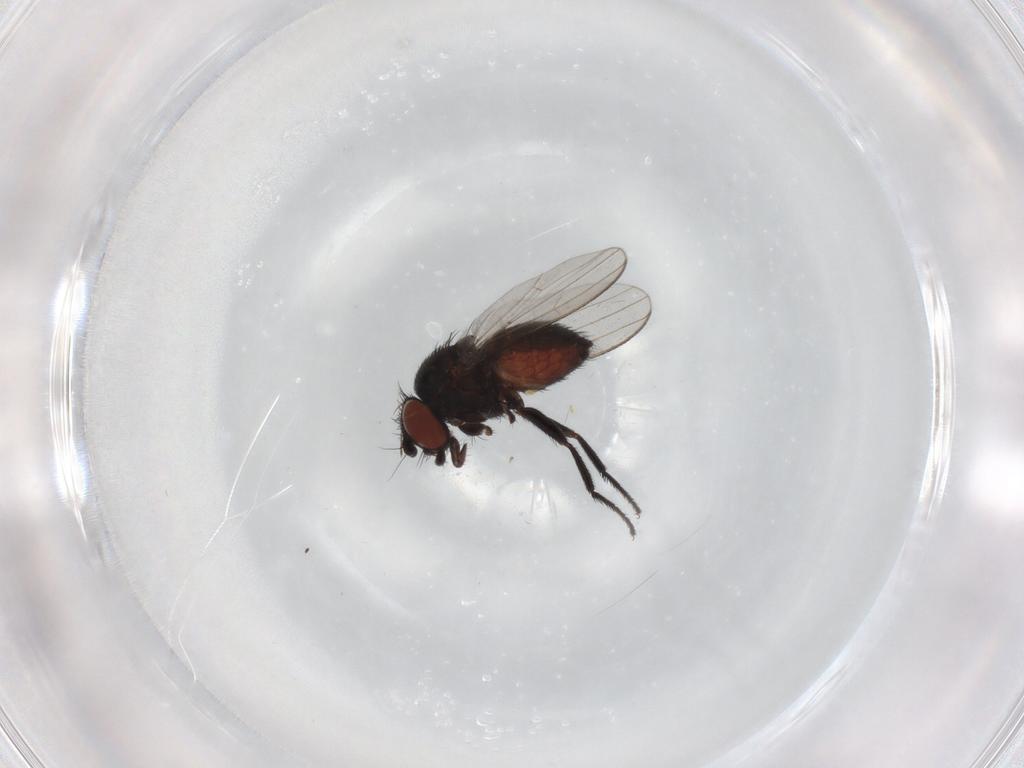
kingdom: Animalia
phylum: Arthropoda
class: Insecta
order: Diptera
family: Milichiidae
